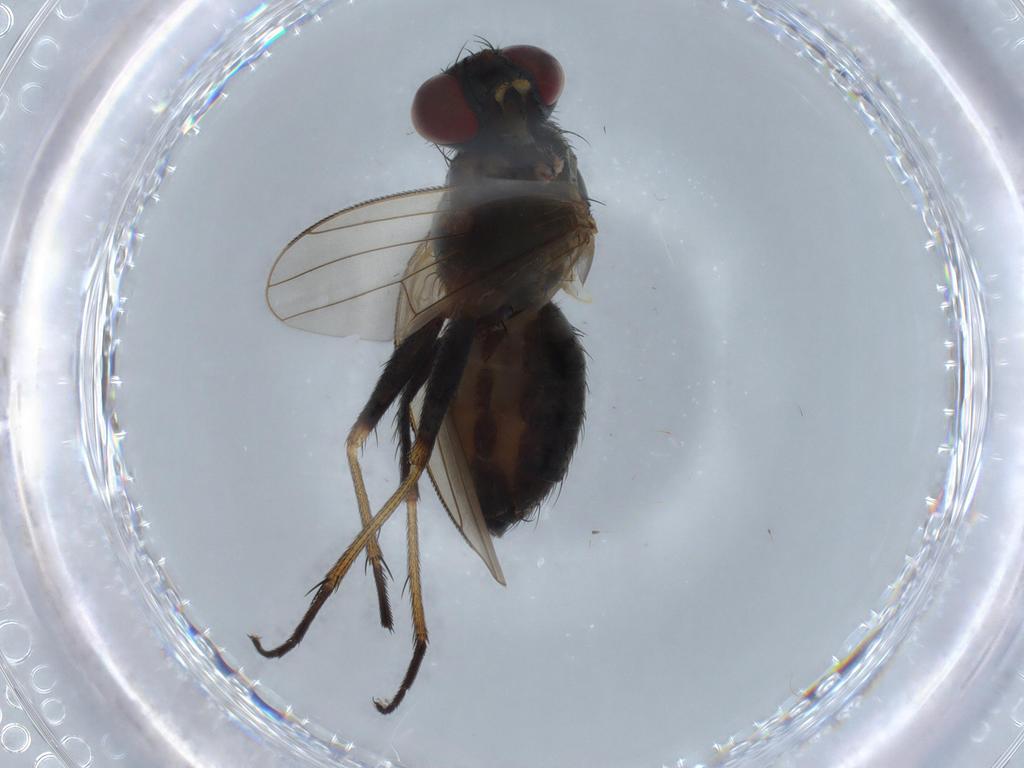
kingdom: Animalia
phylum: Arthropoda
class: Insecta
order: Diptera
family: Muscidae
